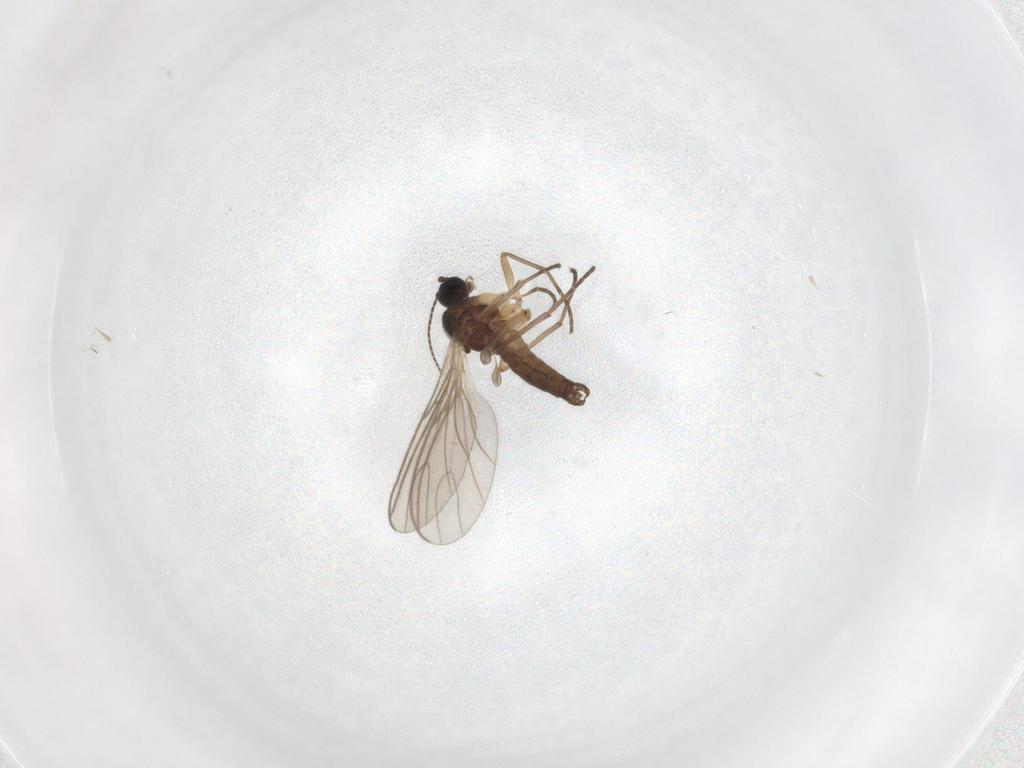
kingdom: Animalia
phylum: Arthropoda
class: Insecta
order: Diptera
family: Sciaridae
